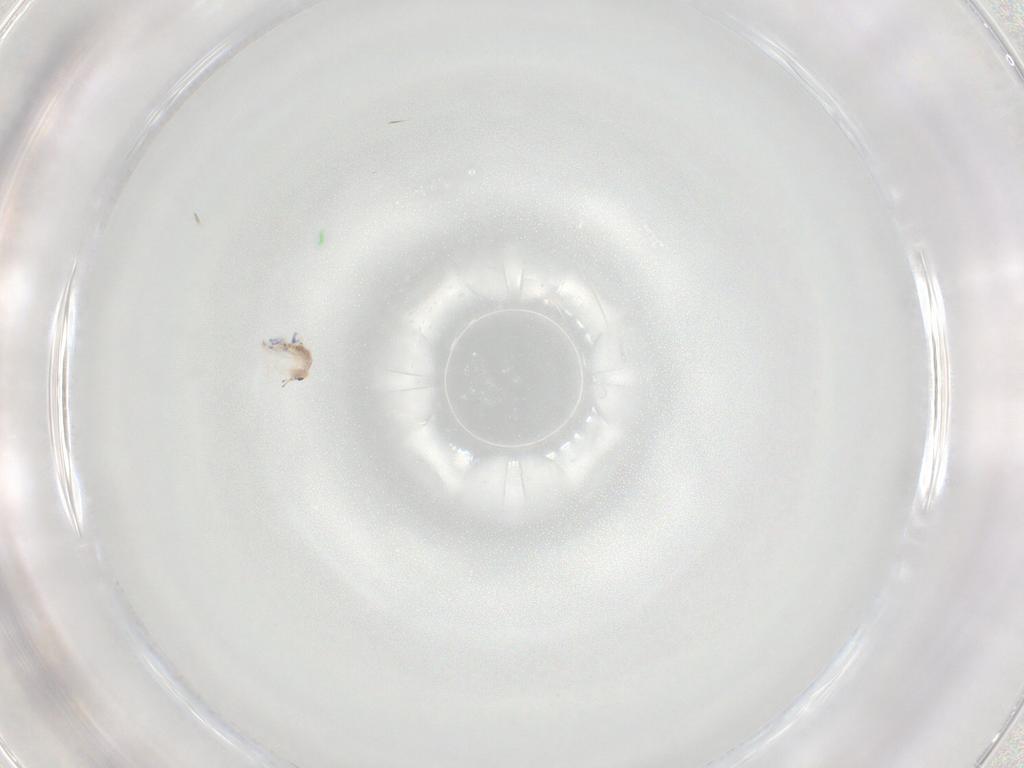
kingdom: Animalia
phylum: Arthropoda
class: Collembola
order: Entomobryomorpha
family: Entomobryidae
